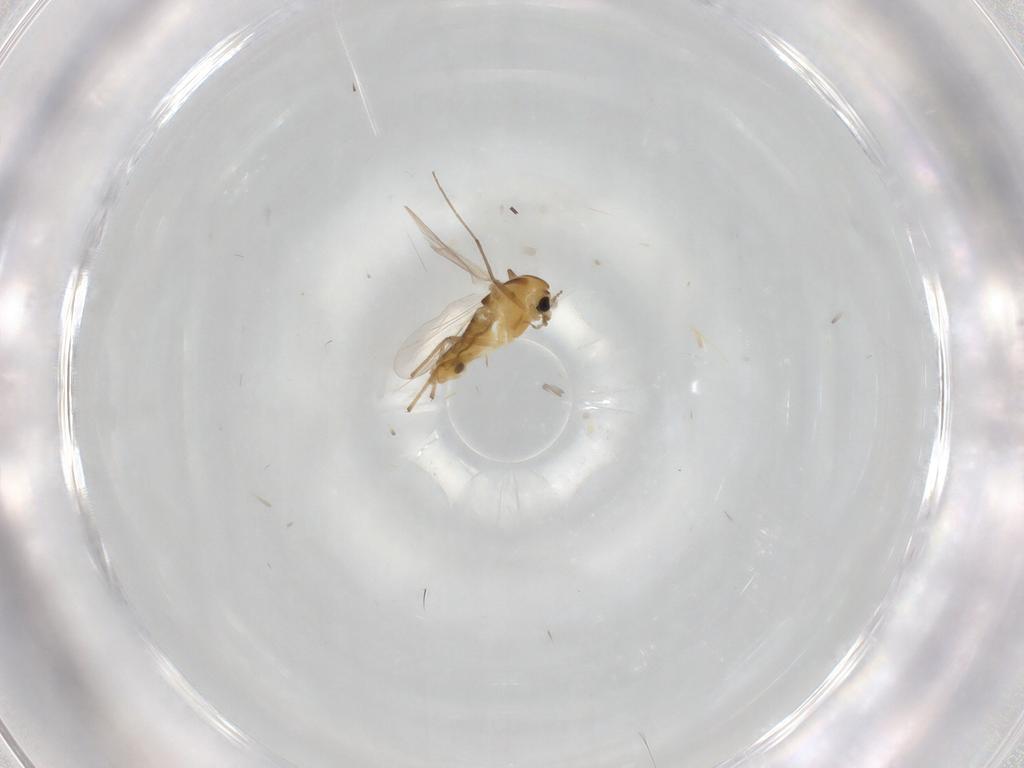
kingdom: Animalia
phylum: Arthropoda
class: Insecta
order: Diptera
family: Chironomidae
